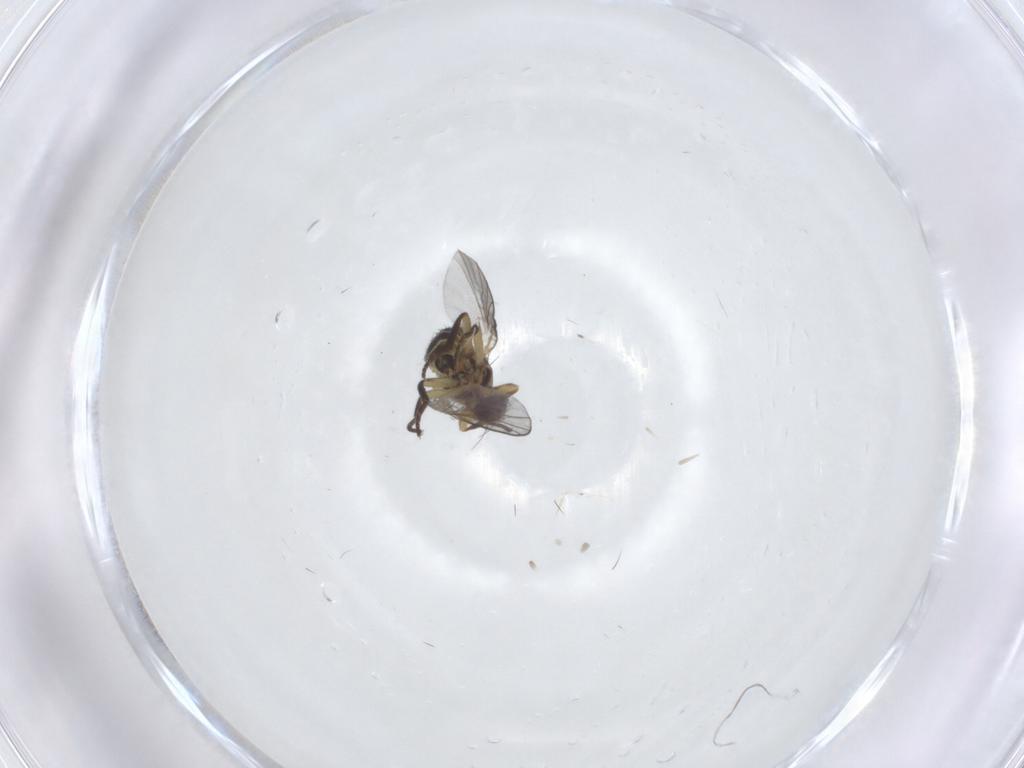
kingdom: Animalia
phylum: Arthropoda
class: Insecta
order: Diptera
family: Agromyzidae
